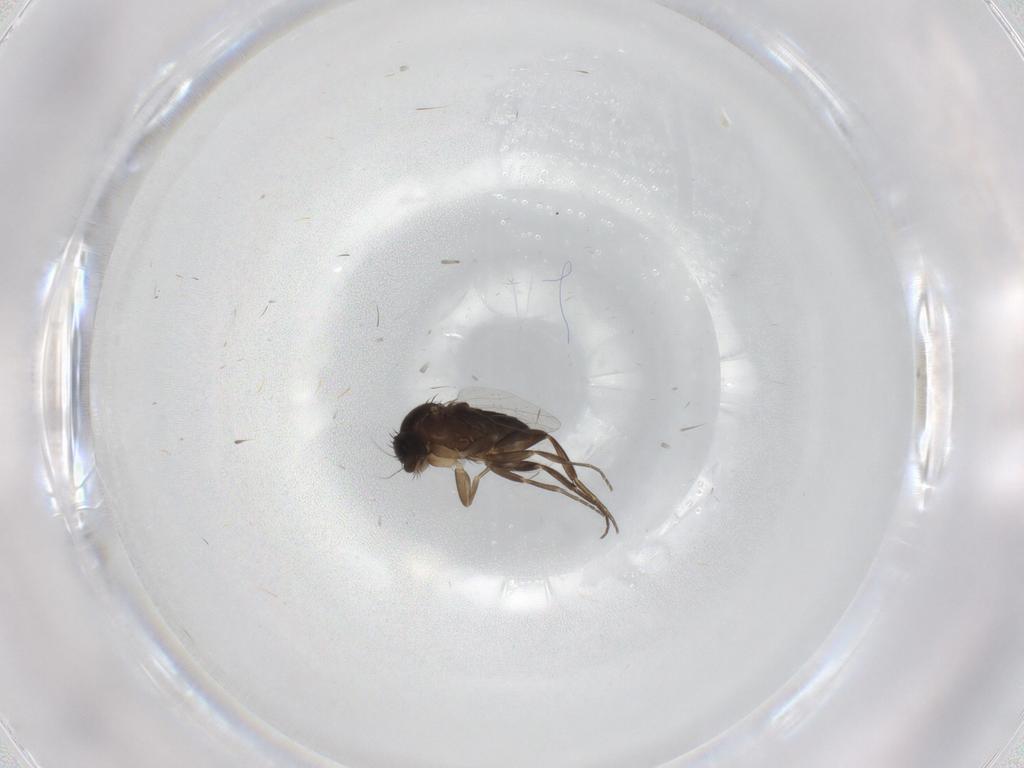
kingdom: Animalia
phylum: Arthropoda
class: Insecta
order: Diptera
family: Phoridae
